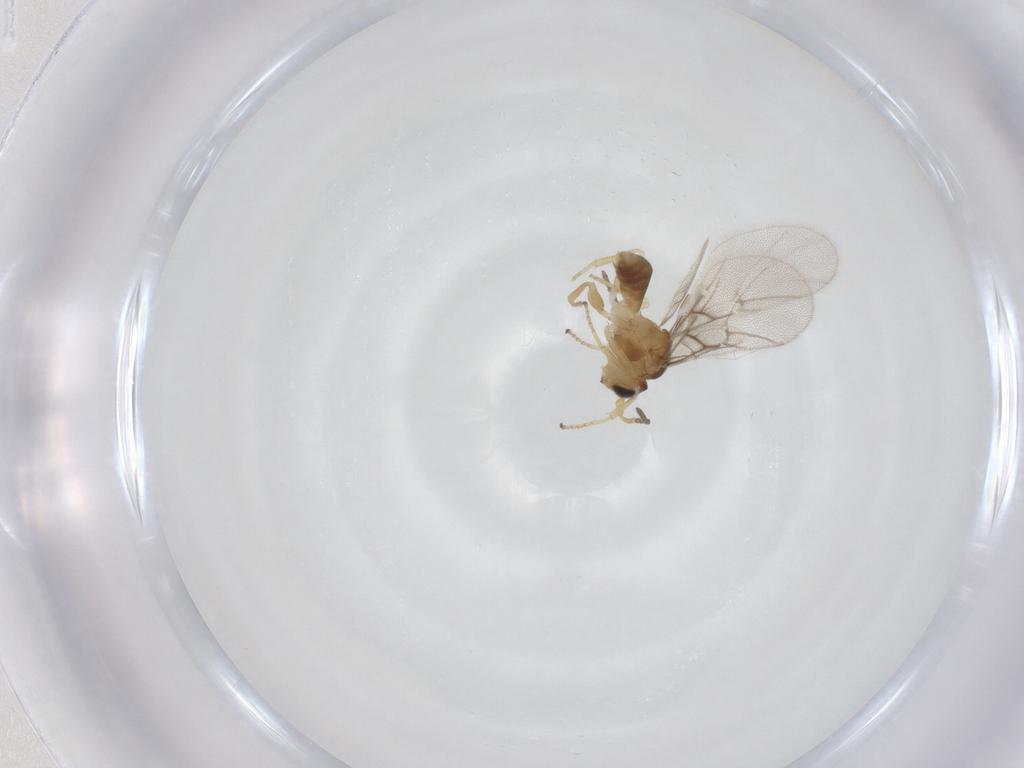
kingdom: Animalia
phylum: Arthropoda
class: Insecta
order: Hymenoptera
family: Cynipidae
